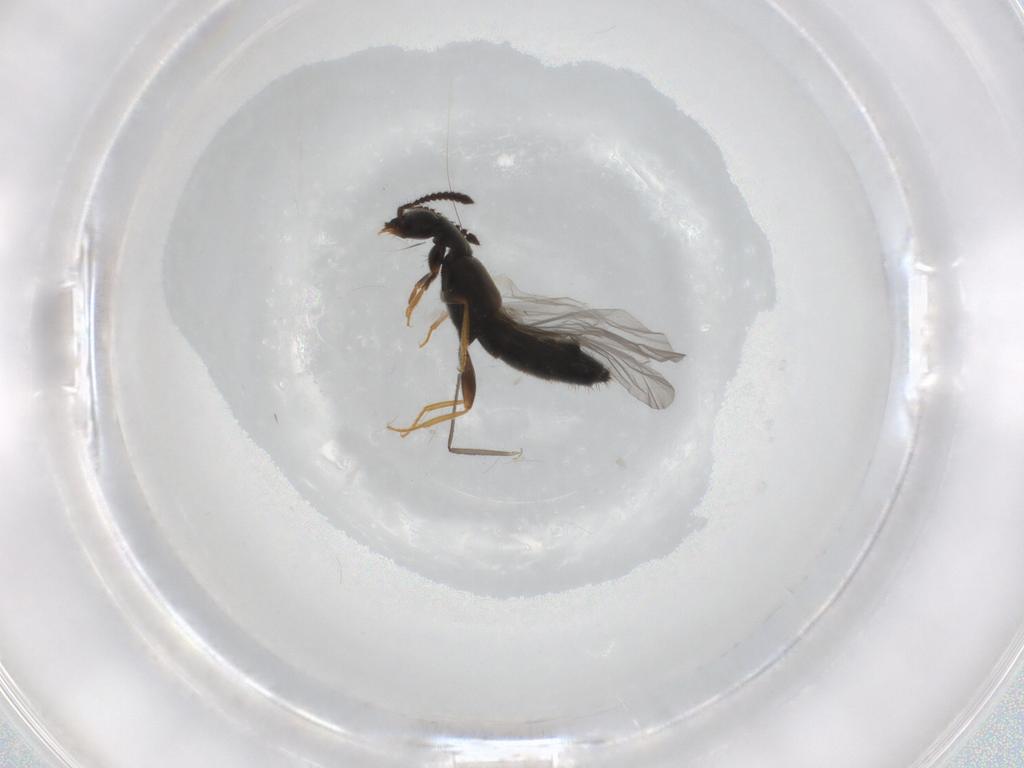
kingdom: Animalia
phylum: Arthropoda
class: Insecta
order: Coleoptera
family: Staphylinidae
